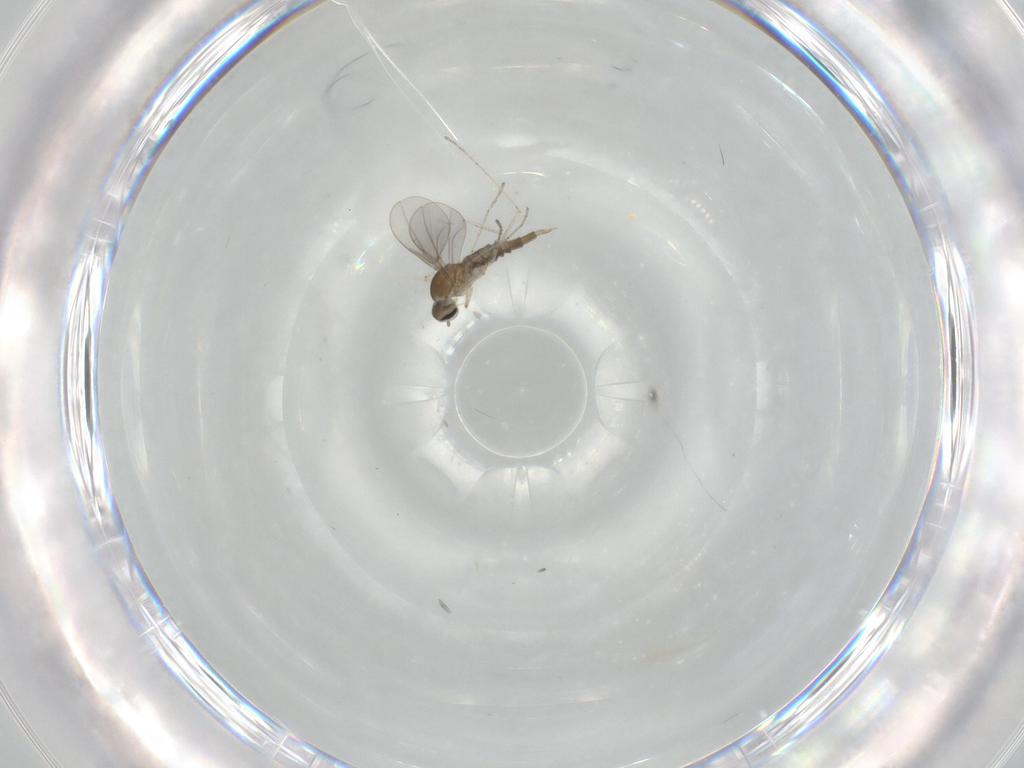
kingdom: Animalia
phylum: Arthropoda
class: Insecta
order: Diptera
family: Cecidomyiidae
